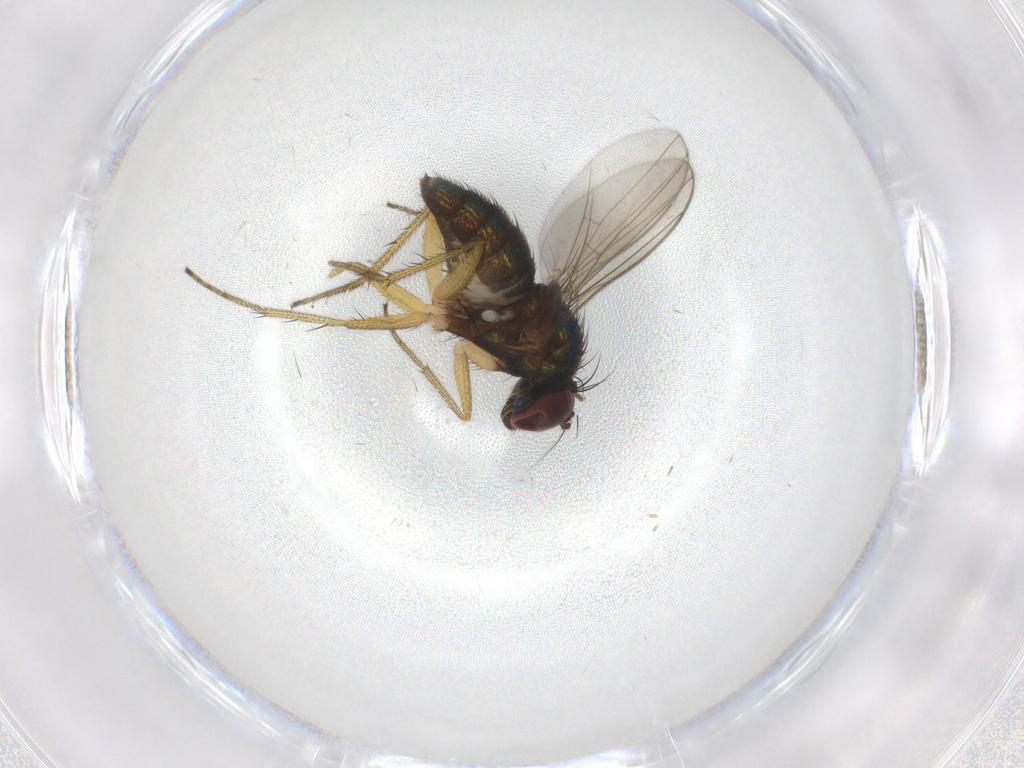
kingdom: Animalia
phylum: Arthropoda
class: Insecta
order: Diptera
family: Sciaridae
